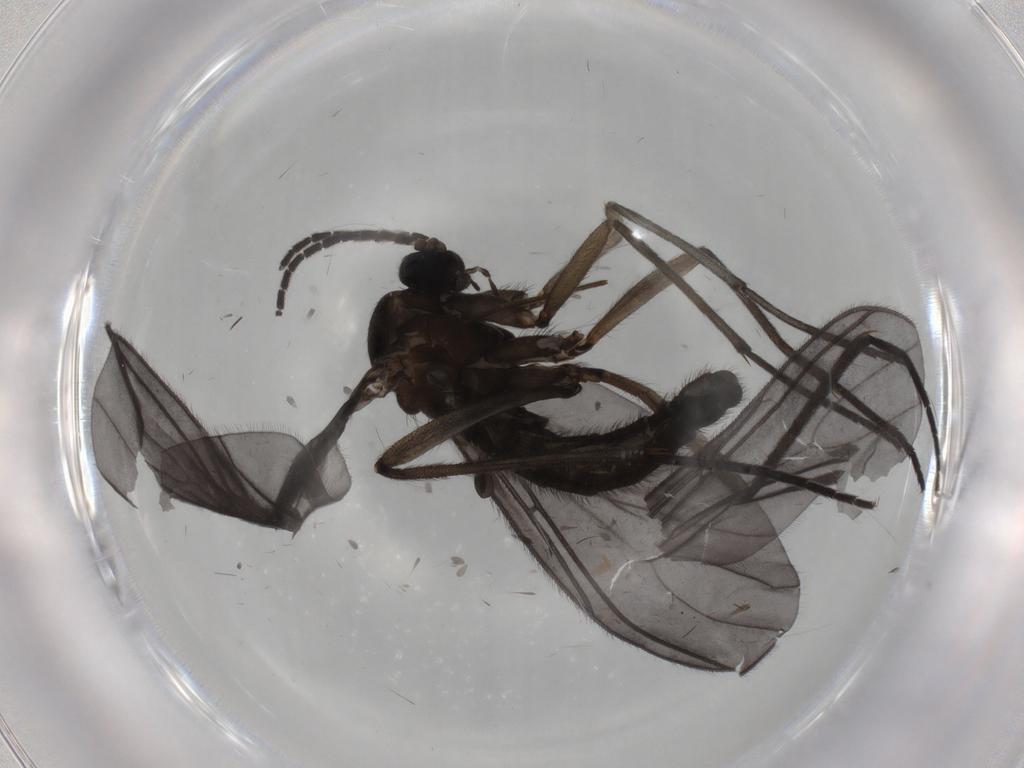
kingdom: Animalia
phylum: Arthropoda
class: Insecta
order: Diptera
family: Sciaridae
